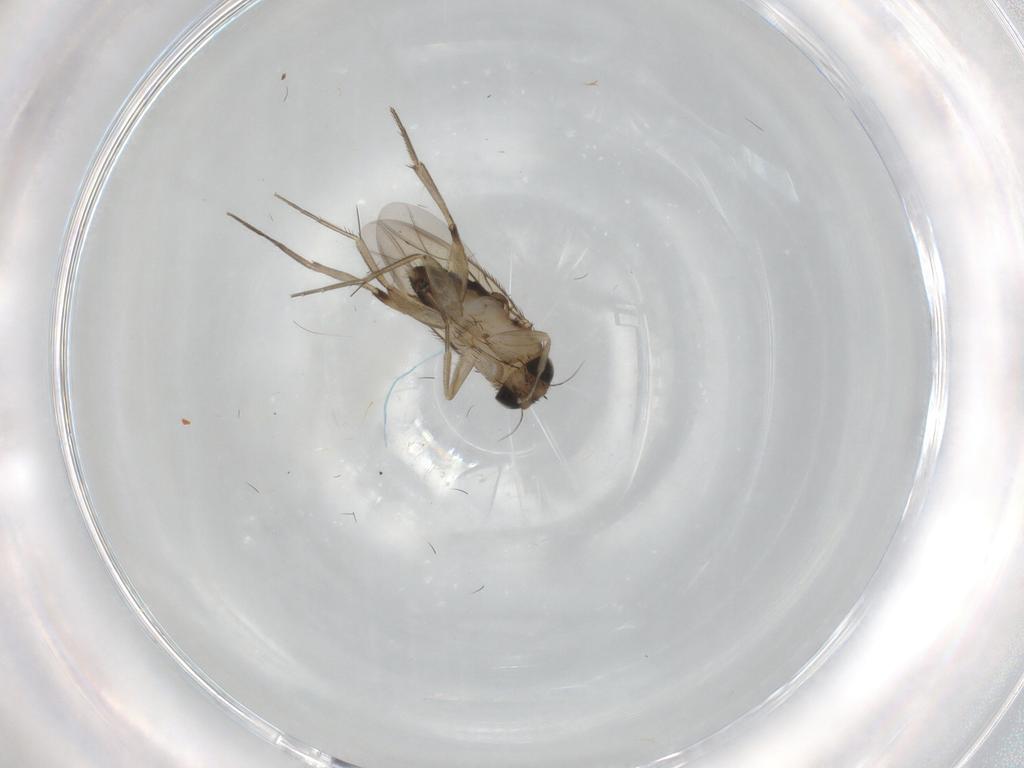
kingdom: Animalia
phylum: Arthropoda
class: Insecta
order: Diptera
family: Phoridae
